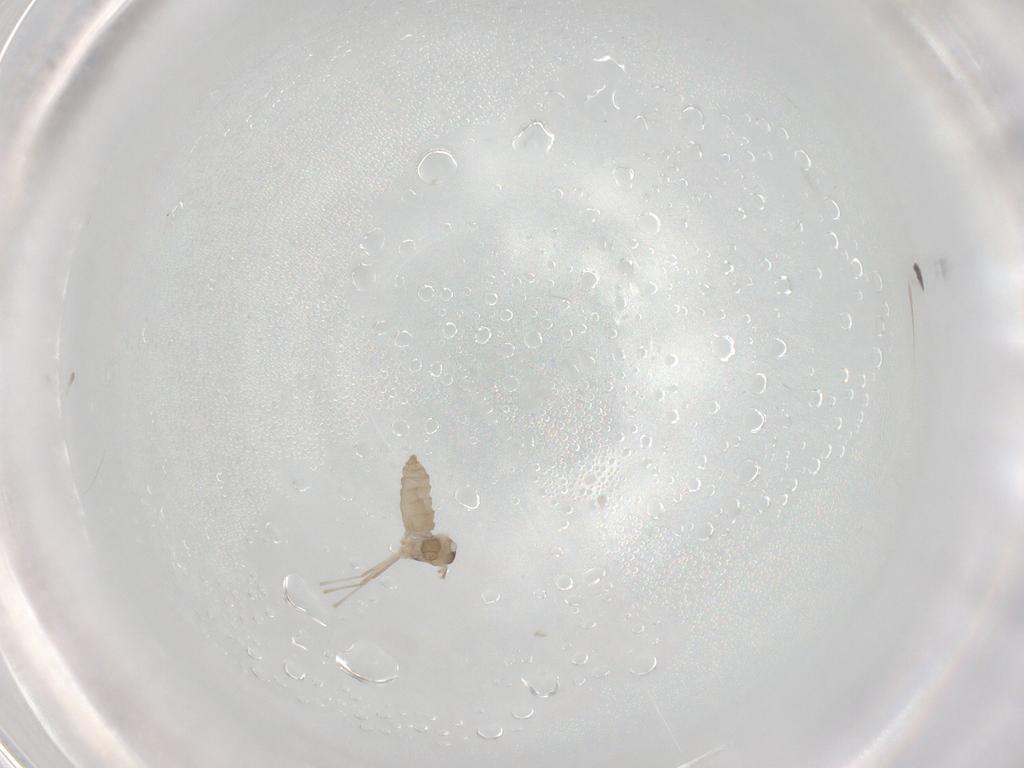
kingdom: Animalia
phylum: Arthropoda
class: Insecta
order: Diptera
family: Cecidomyiidae
